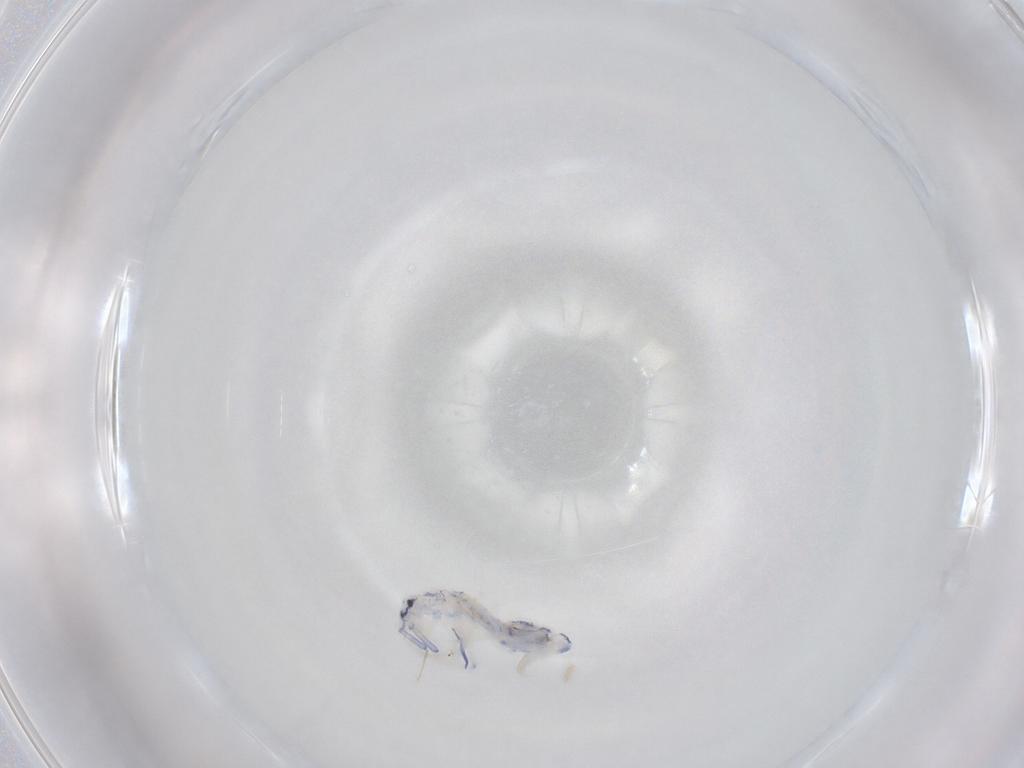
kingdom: Animalia
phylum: Arthropoda
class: Collembola
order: Entomobryomorpha
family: Entomobryidae
